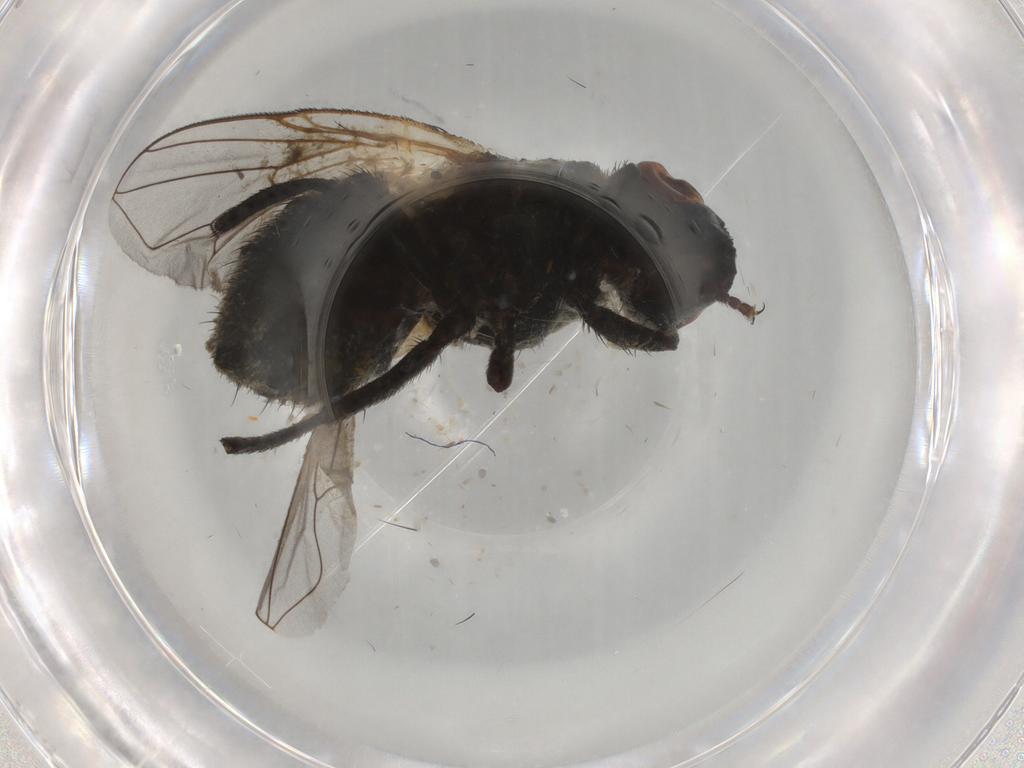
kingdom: Animalia
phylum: Arthropoda
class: Insecta
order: Diptera
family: Muscidae
